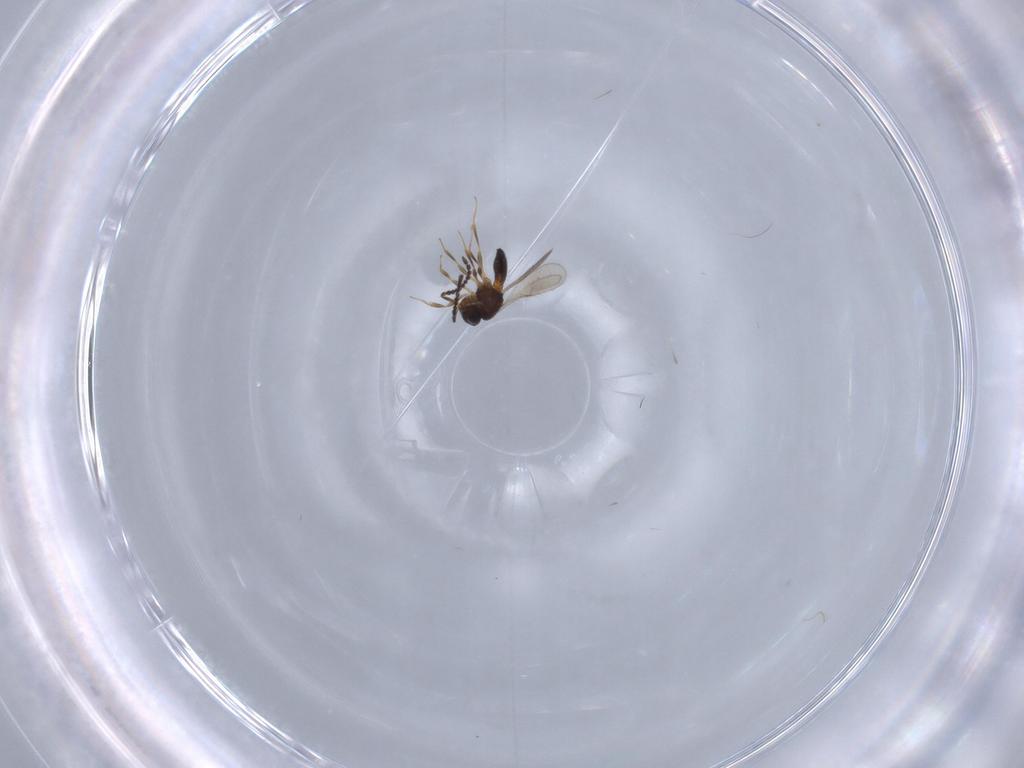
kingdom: Animalia
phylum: Arthropoda
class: Insecta
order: Hymenoptera
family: Scelionidae
